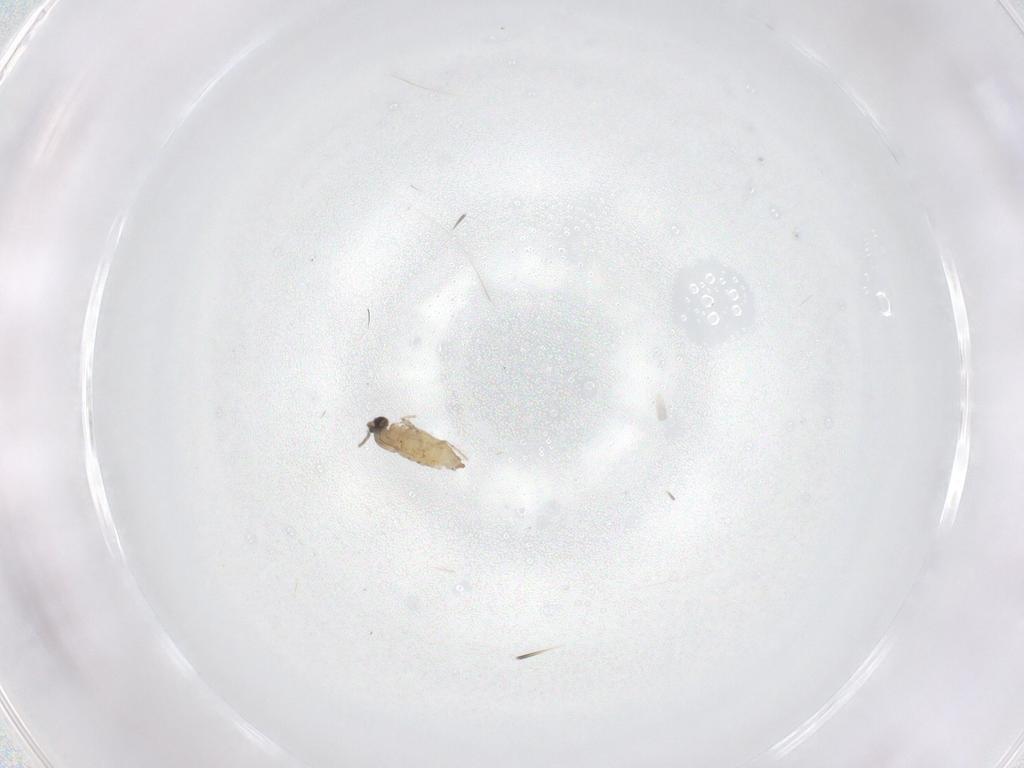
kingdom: Animalia
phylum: Arthropoda
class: Insecta
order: Diptera
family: Cecidomyiidae
